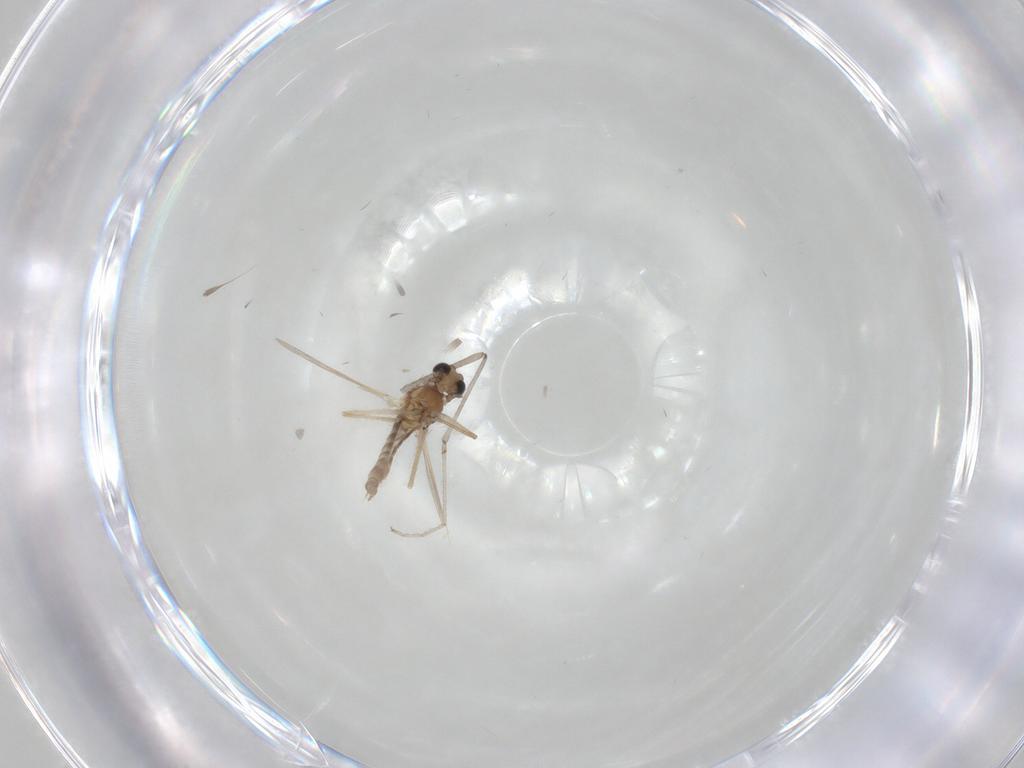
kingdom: Animalia
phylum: Arthropoda
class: Insecta
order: Diptera
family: Chironomidae
